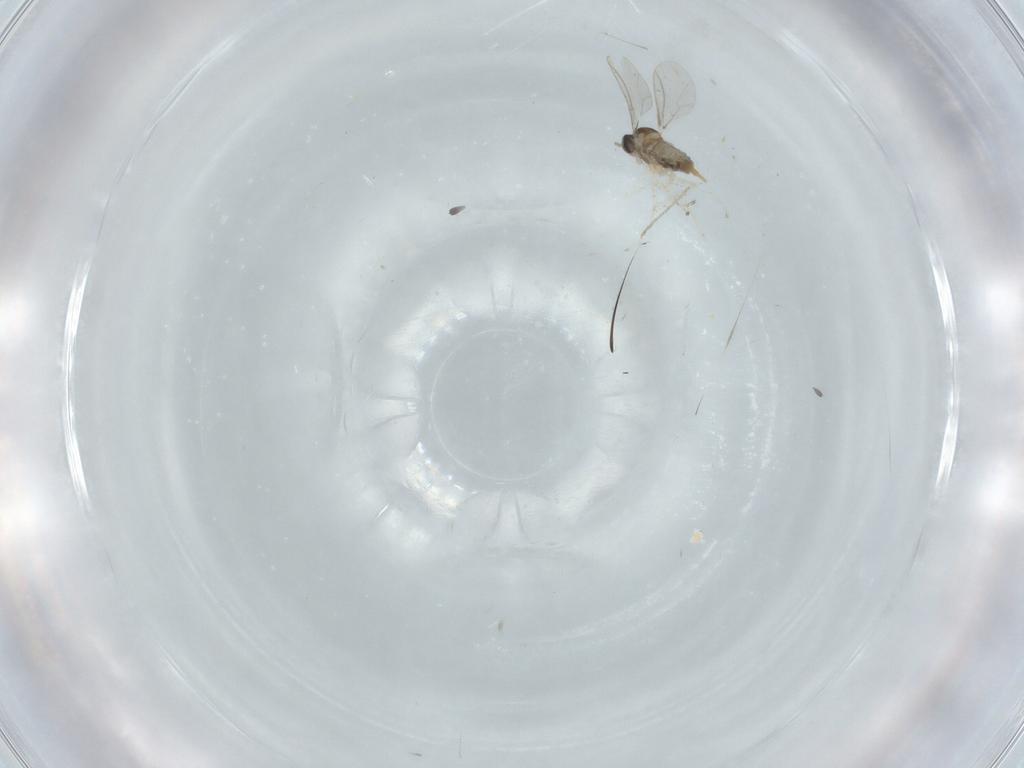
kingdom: Animalia
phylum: Arthropoda
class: Insecta
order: Diptera
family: Cecidomyiidae
